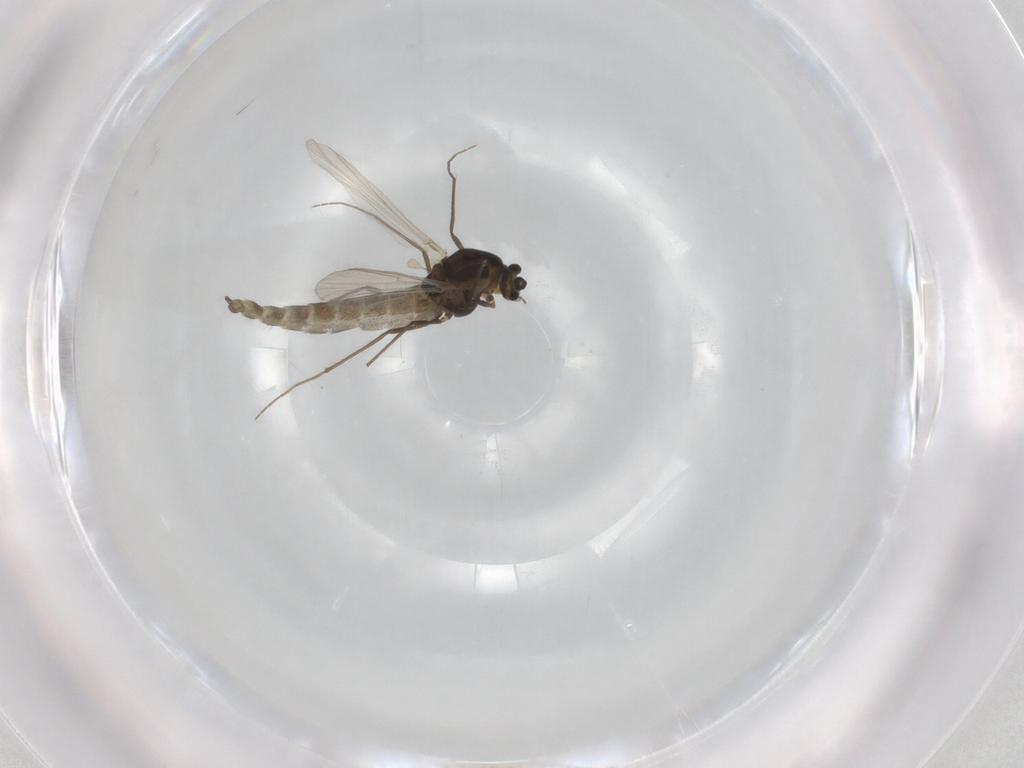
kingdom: Animalia
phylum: Arthropoda
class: Insecta
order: Diptera
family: Chironomidae
